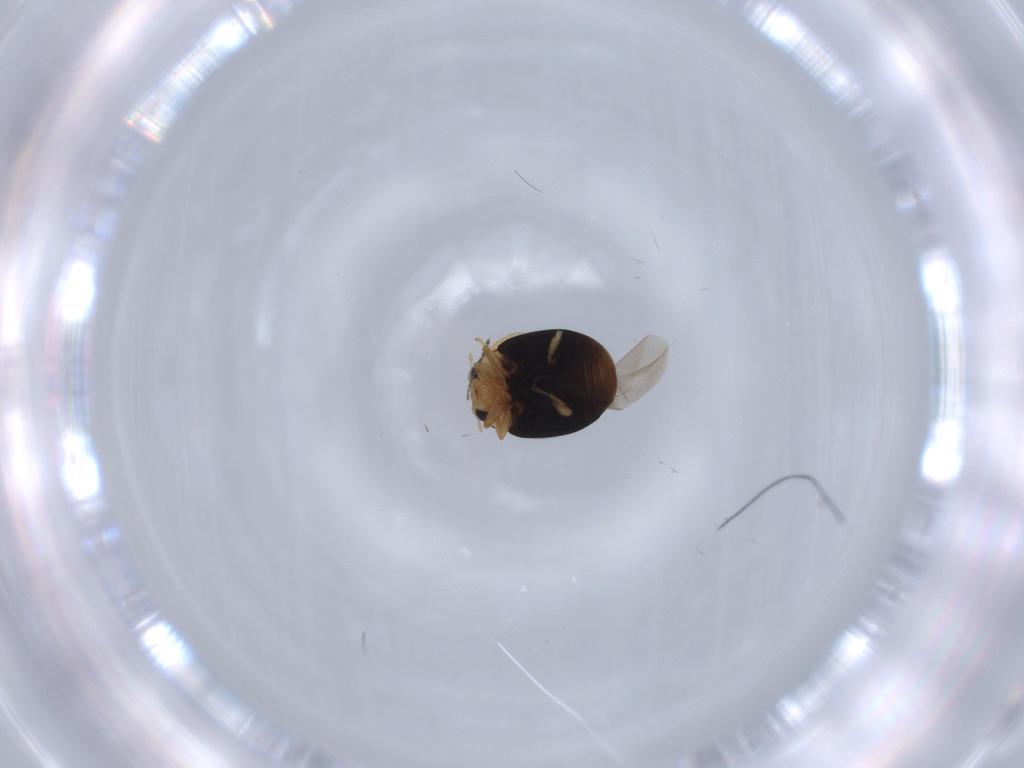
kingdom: Animalia
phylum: Arthropoda
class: Insecta
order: Coleoptera
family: Coccinellidae
